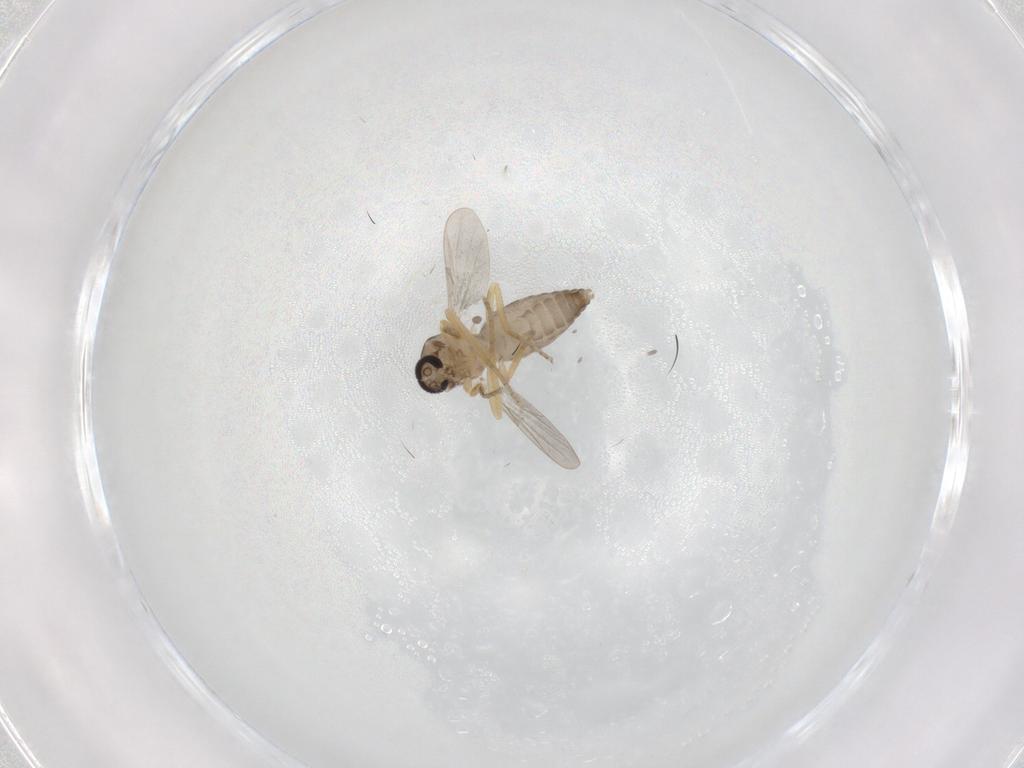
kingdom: Animalia
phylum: Arthropoda
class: Insecta
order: Diptera
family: Ceratopogonidae
